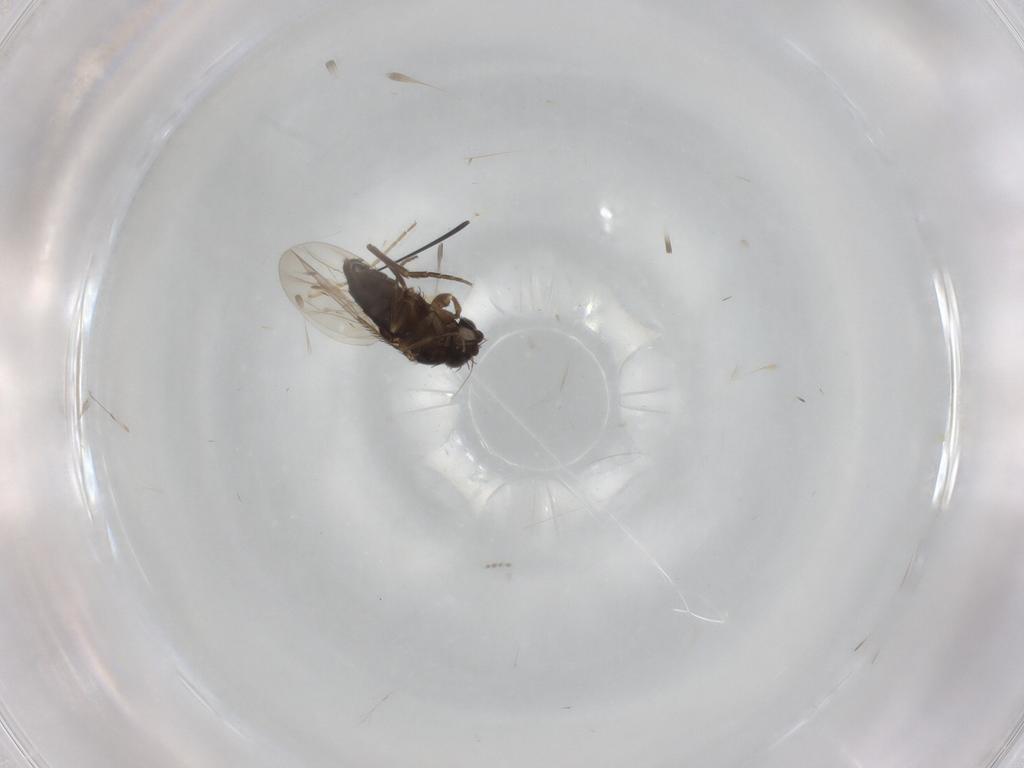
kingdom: Animalia
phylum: Arthropoda
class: Insecta
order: Diptera
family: Phoridae
